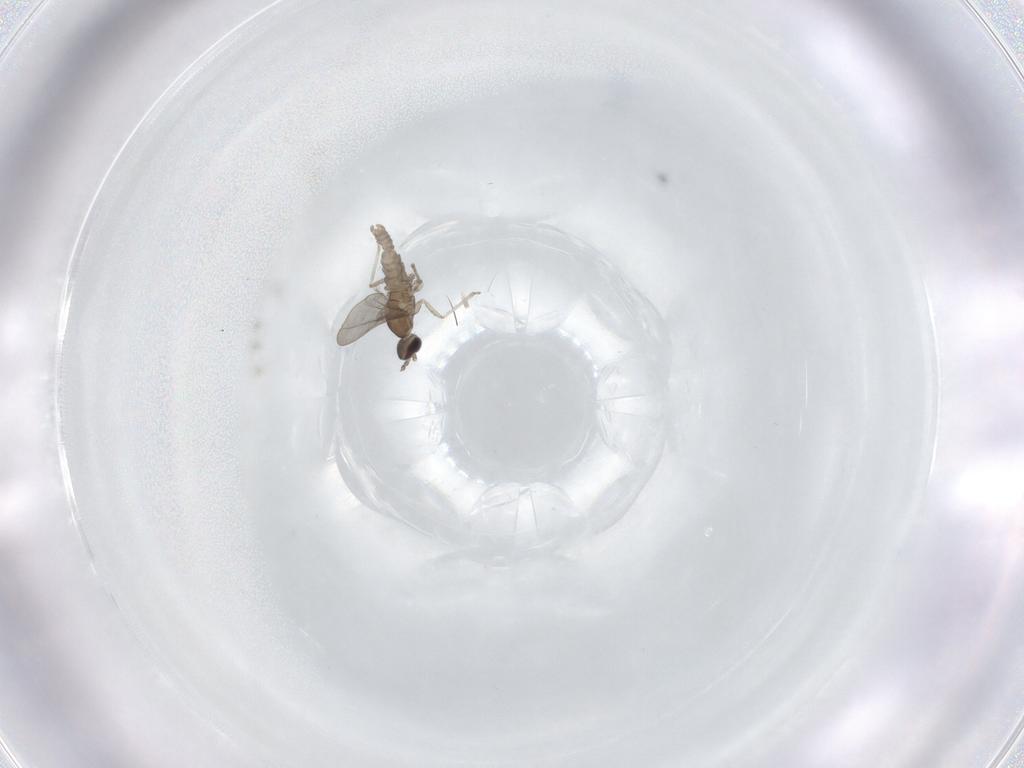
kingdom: Animalia
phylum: Arthropoda
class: Insecta
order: Diptera
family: Cecidomyiidae
